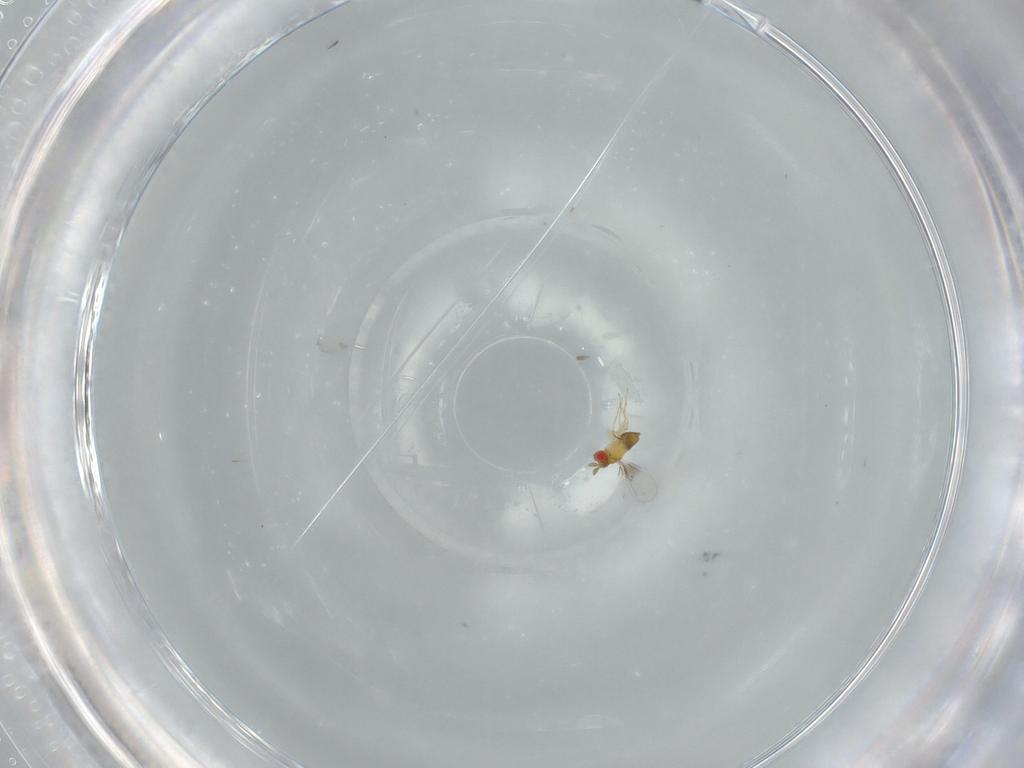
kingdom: Animalia
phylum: Arthropoda
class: Insecta
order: Hymenoptera
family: Trichogrammatidae
